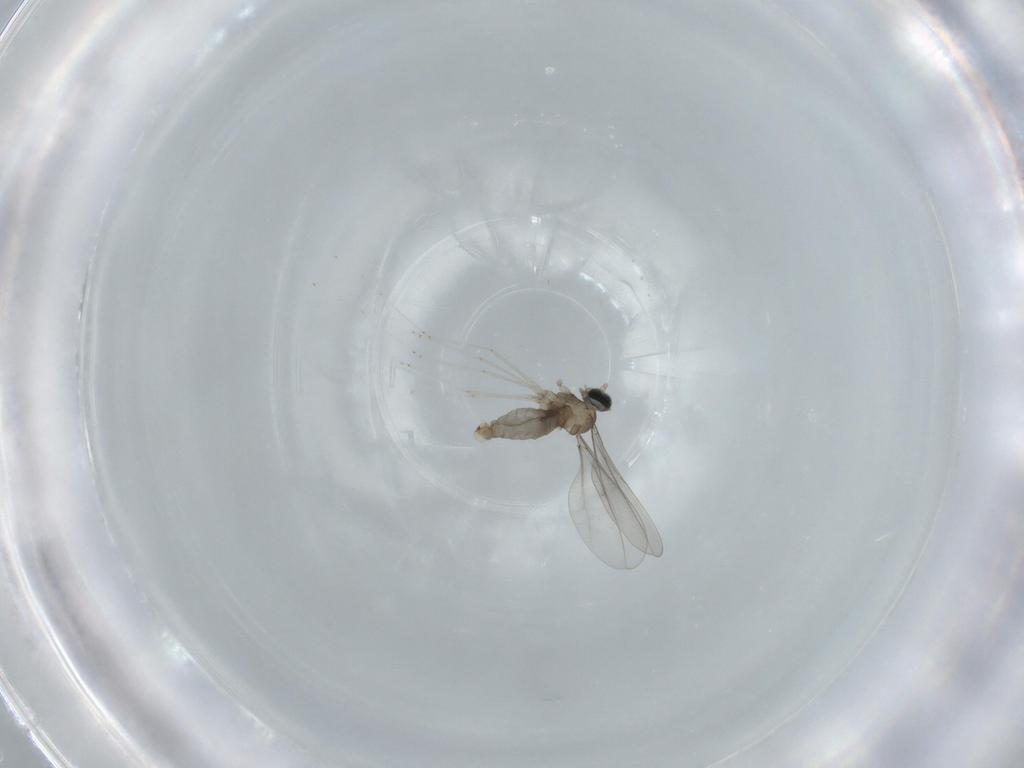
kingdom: Animalia
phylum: Arthropoda
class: Insecta
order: Diptera
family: Cecidomyiidae
